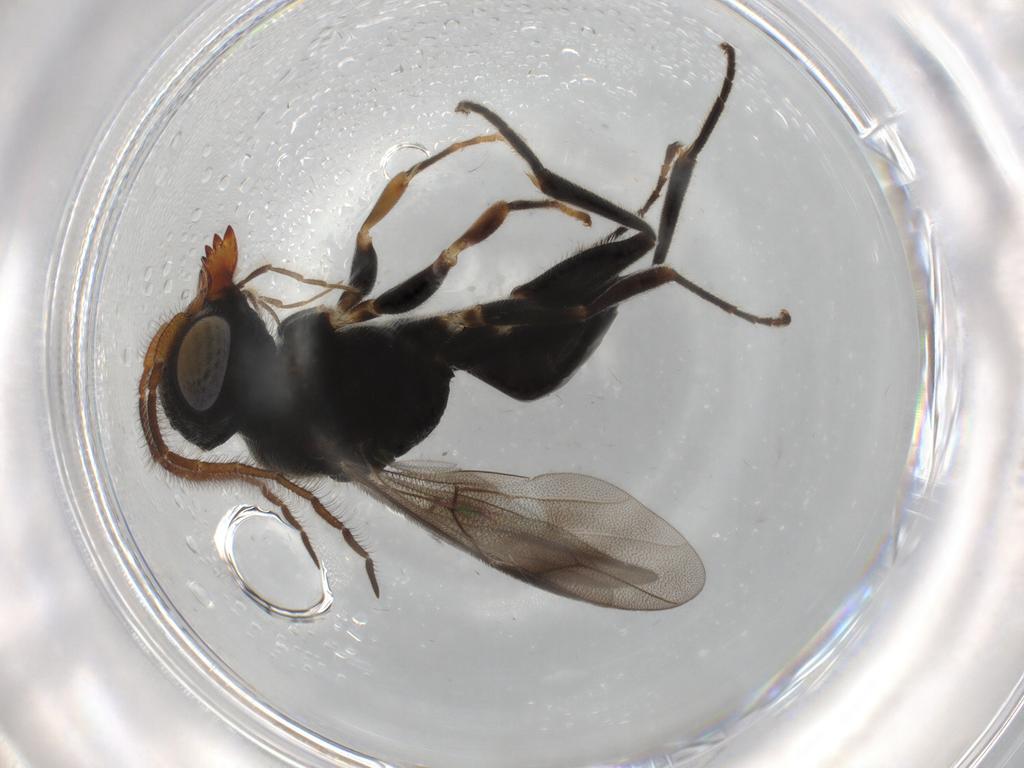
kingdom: Animalia
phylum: Arthropoda
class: Insecta
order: Hymenoptera
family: Dryinidae
